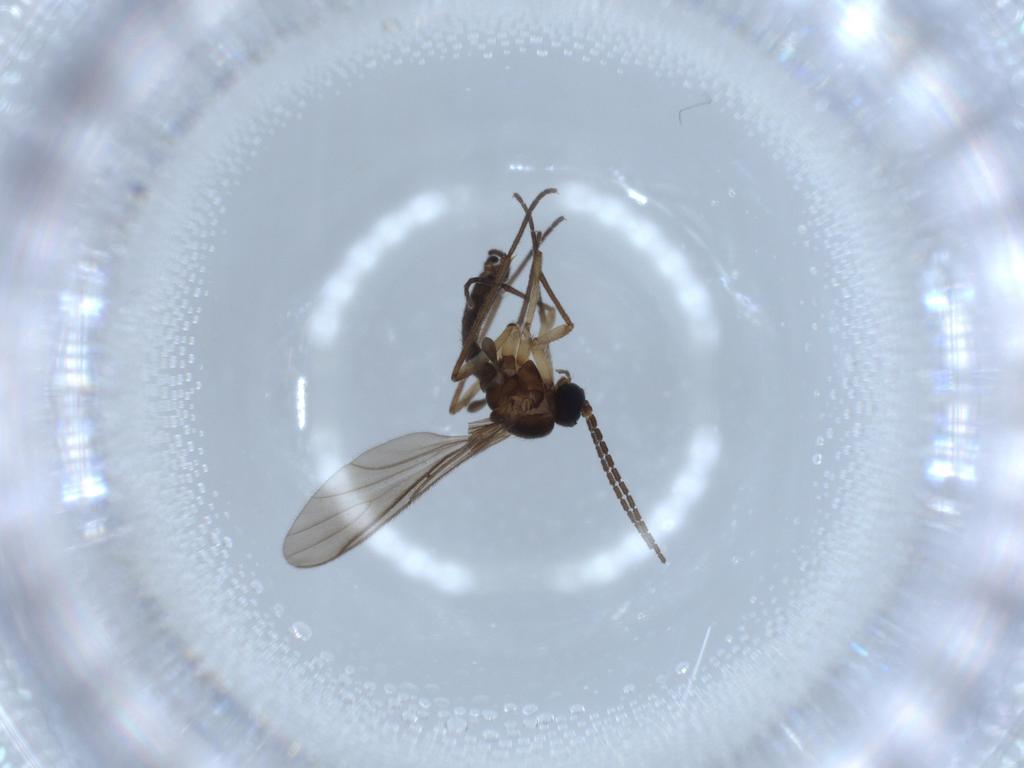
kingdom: Animalia
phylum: Arthropoda
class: Insecta
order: Diptera
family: Sciaridae
